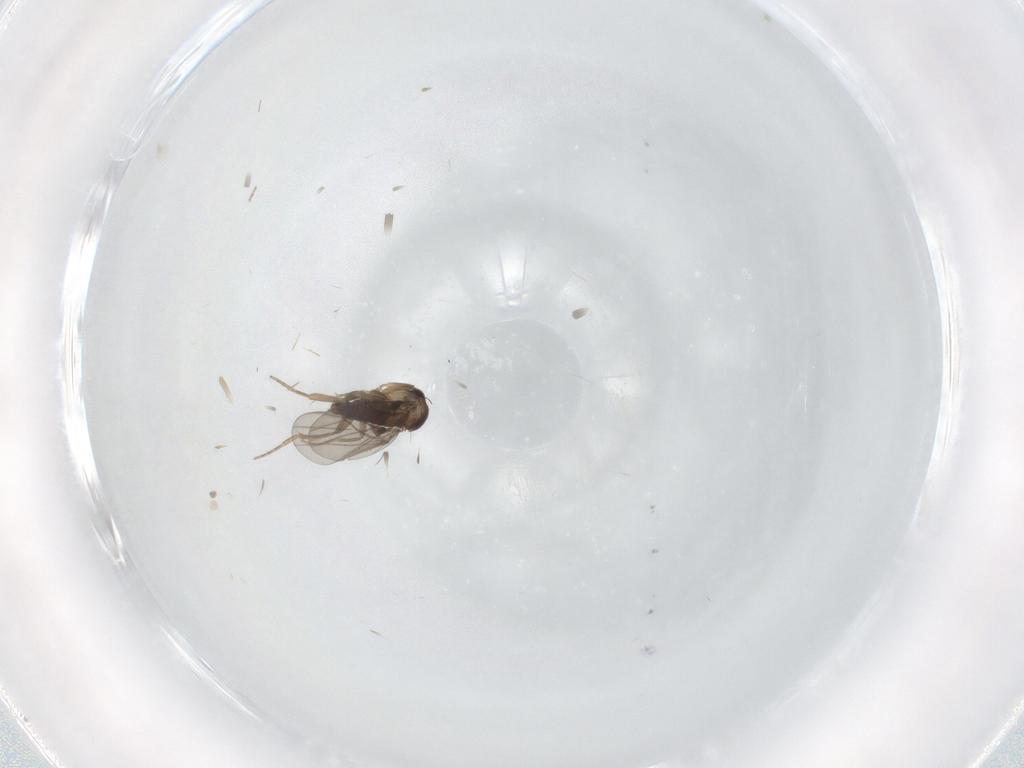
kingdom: Animalia
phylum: Arthropoda
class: Insecta
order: Diptera
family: Phoridae
